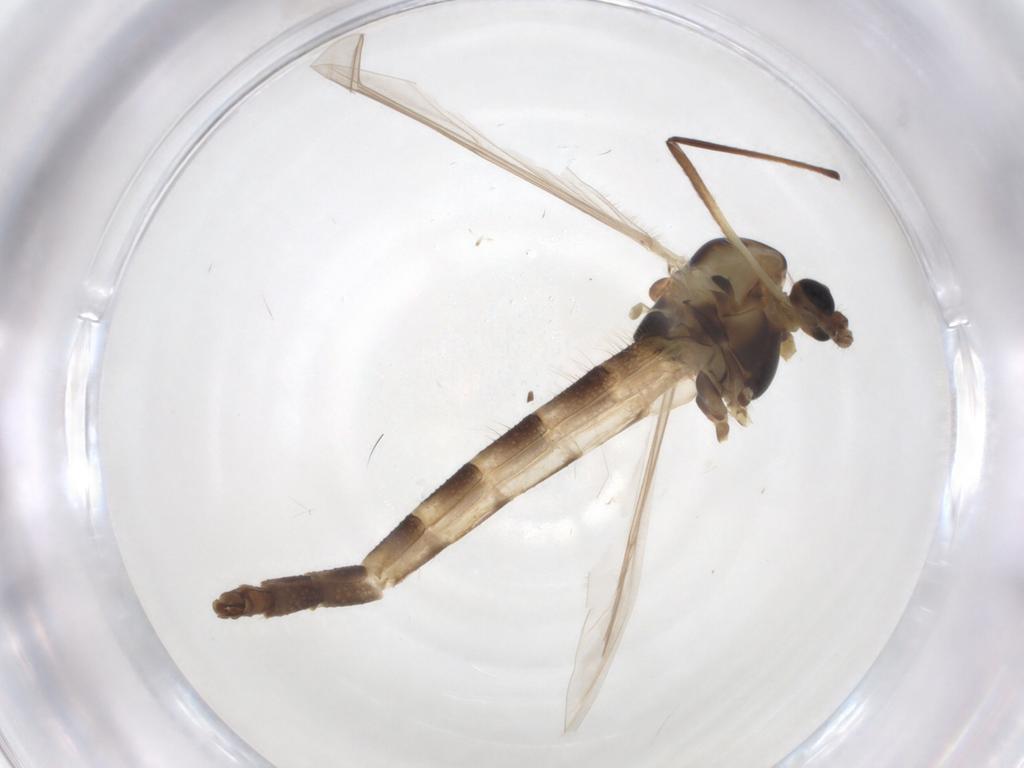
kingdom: Animalia
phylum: Arthropoda
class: Insecta
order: Diptera
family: Chironomidae
